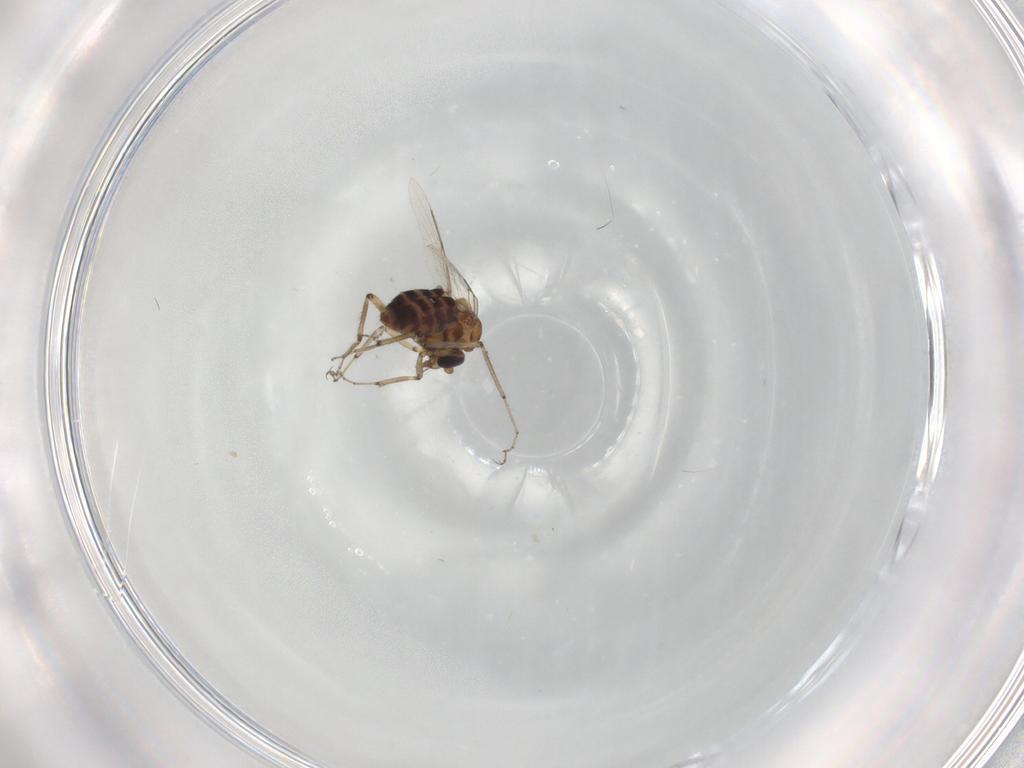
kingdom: Animalia
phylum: Arthropoda
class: Insecta
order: Diptera
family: Ceratopogonidae
